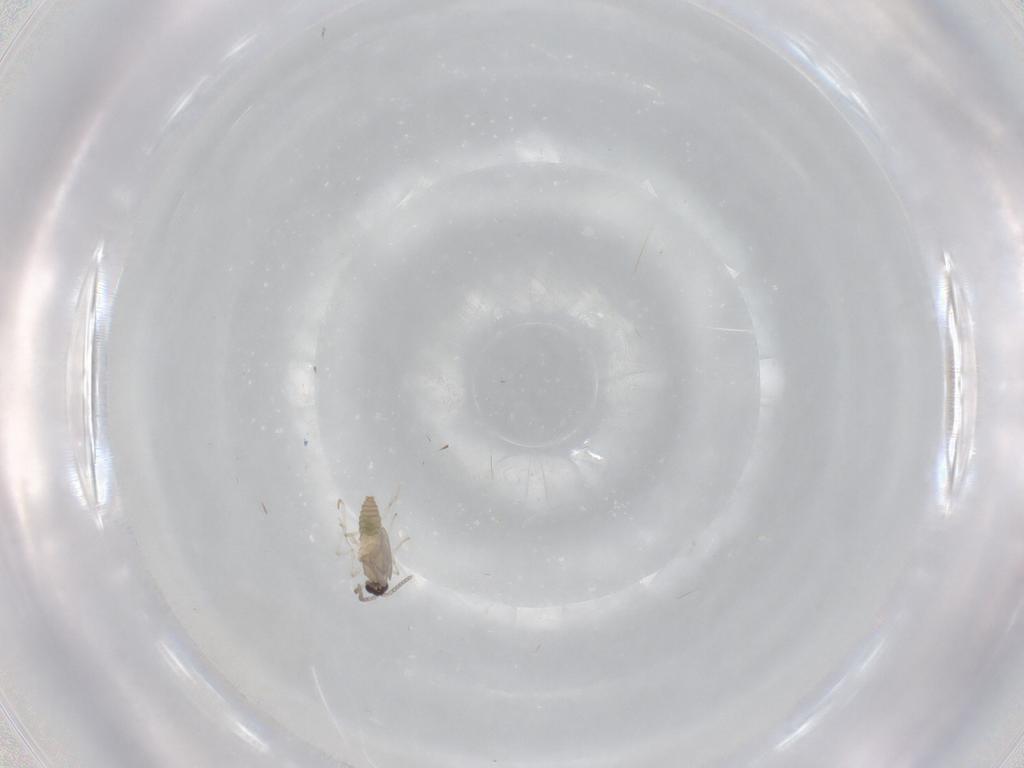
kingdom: Animalia
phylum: Arthropoda
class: Insecta
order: Diptera
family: Cecidomyiidae
